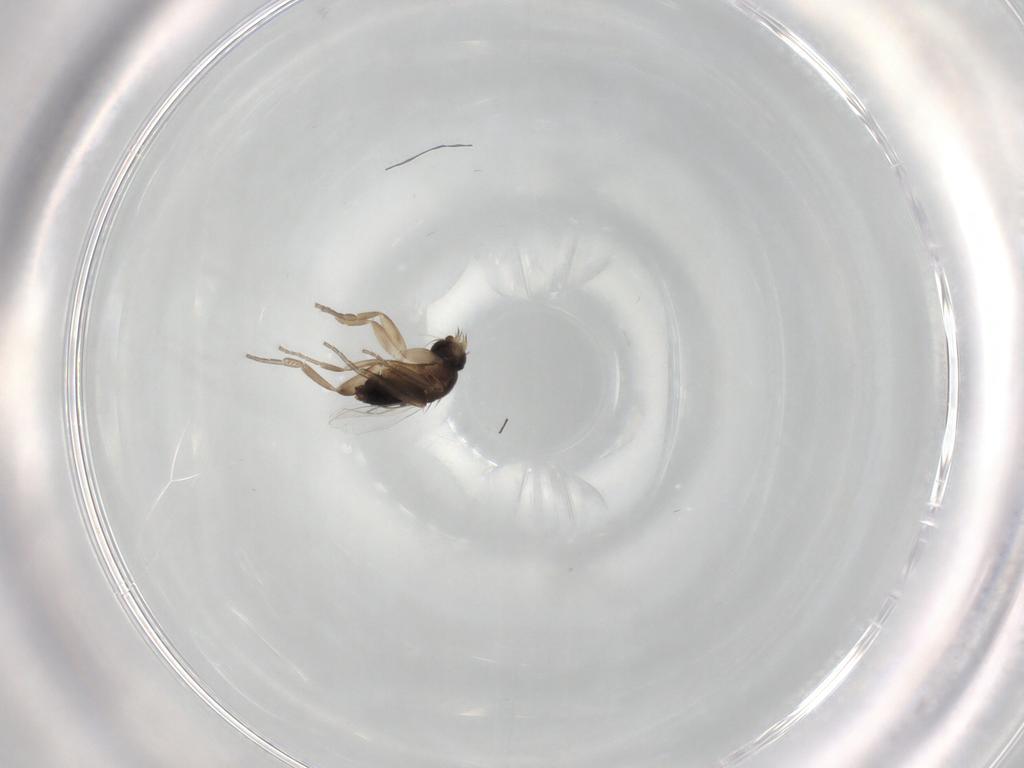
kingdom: Animalia
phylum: Arthropoda
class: Insecta
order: Diptera
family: Phoridae
